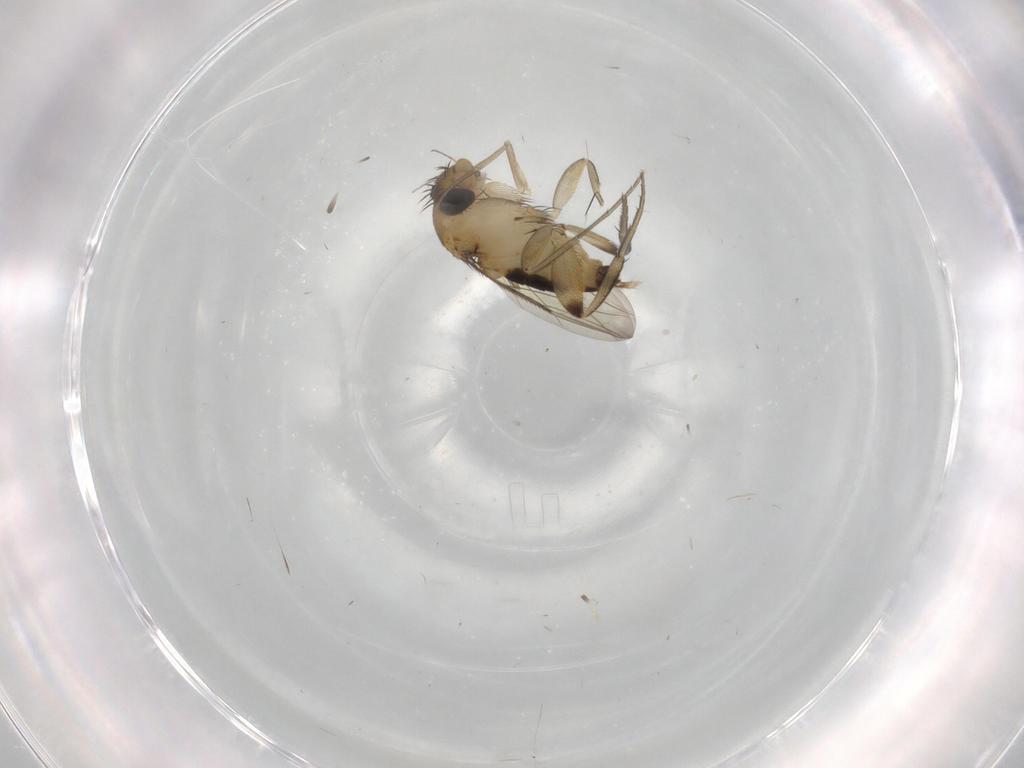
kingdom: Animalia
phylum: Arthropoda
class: Insecta
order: Diptera
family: Phoridae
